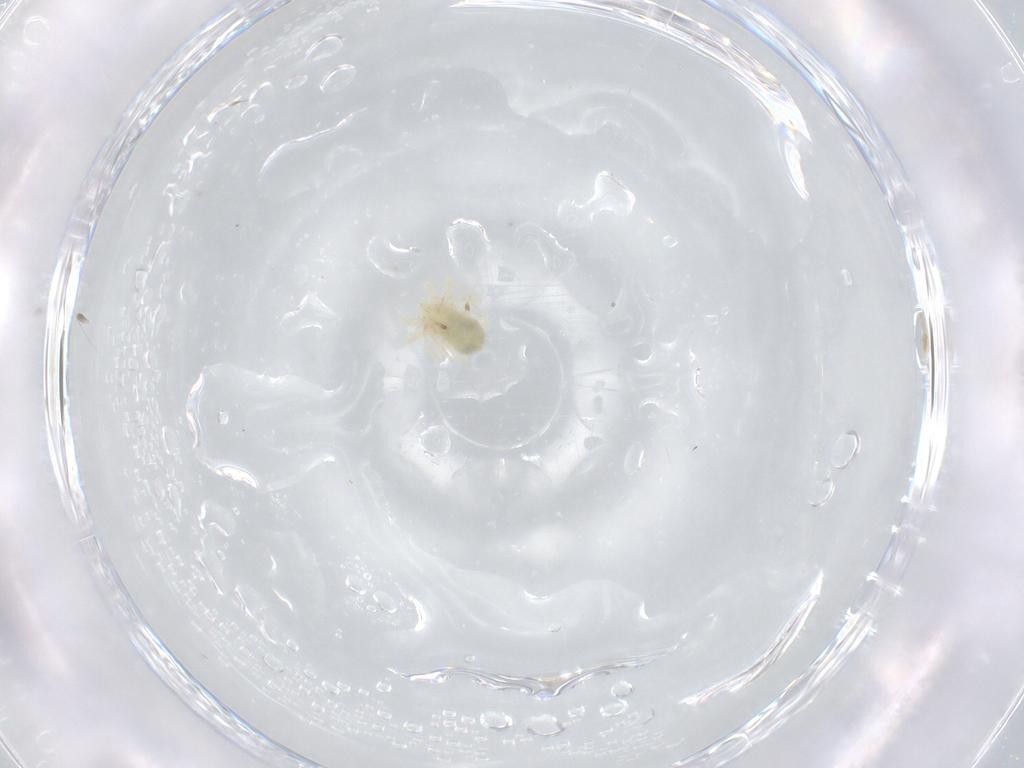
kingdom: Animalia
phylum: Arthropoda
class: Arachnida
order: Trombidiformes
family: Eupodidae
